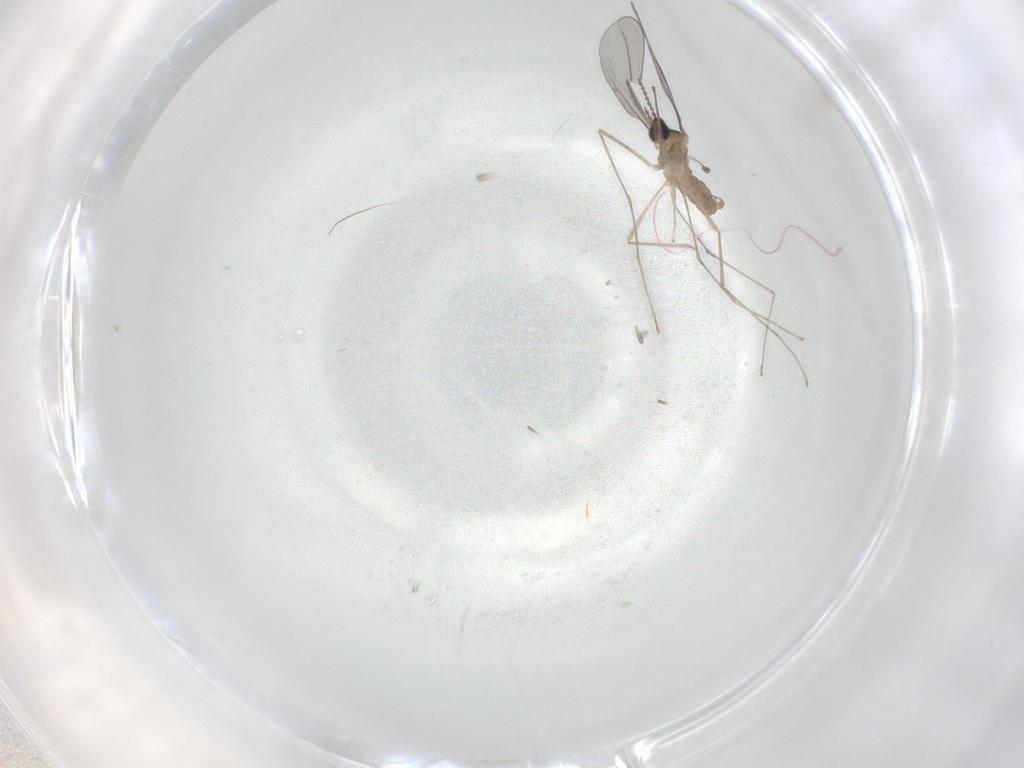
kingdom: Animalia
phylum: Arthropoda
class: Insecta
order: Diptera
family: Cecidomyiidae
